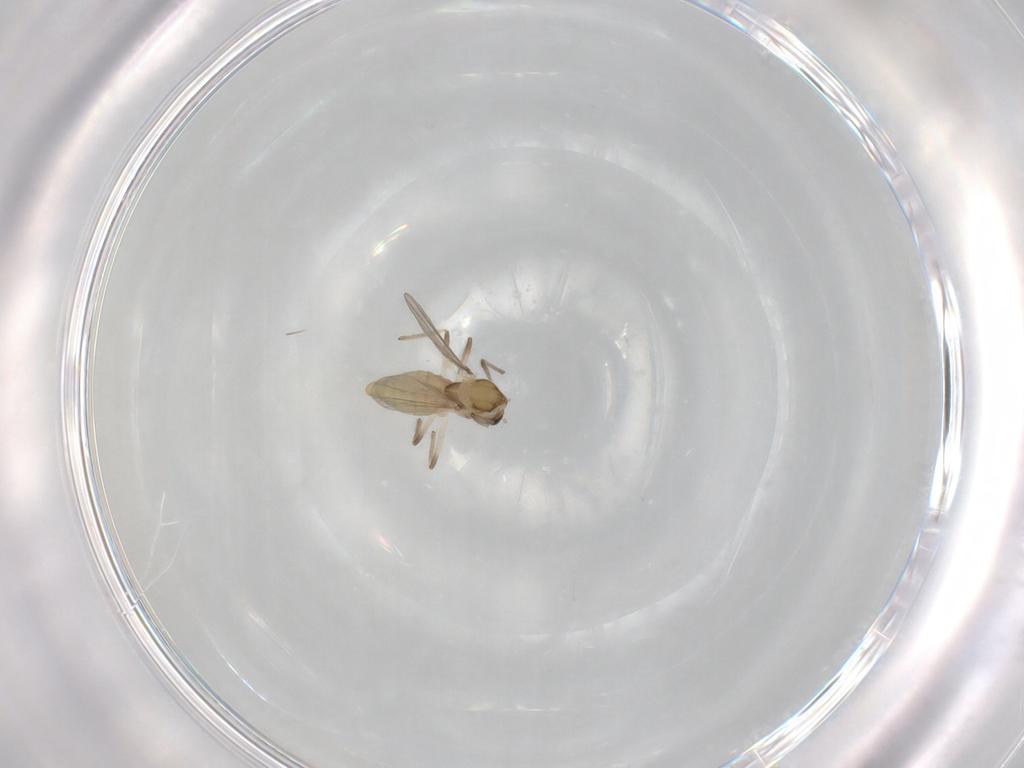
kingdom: Animalia
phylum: Arthropoda
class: Insecta
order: Diptera
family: Chironomidae
